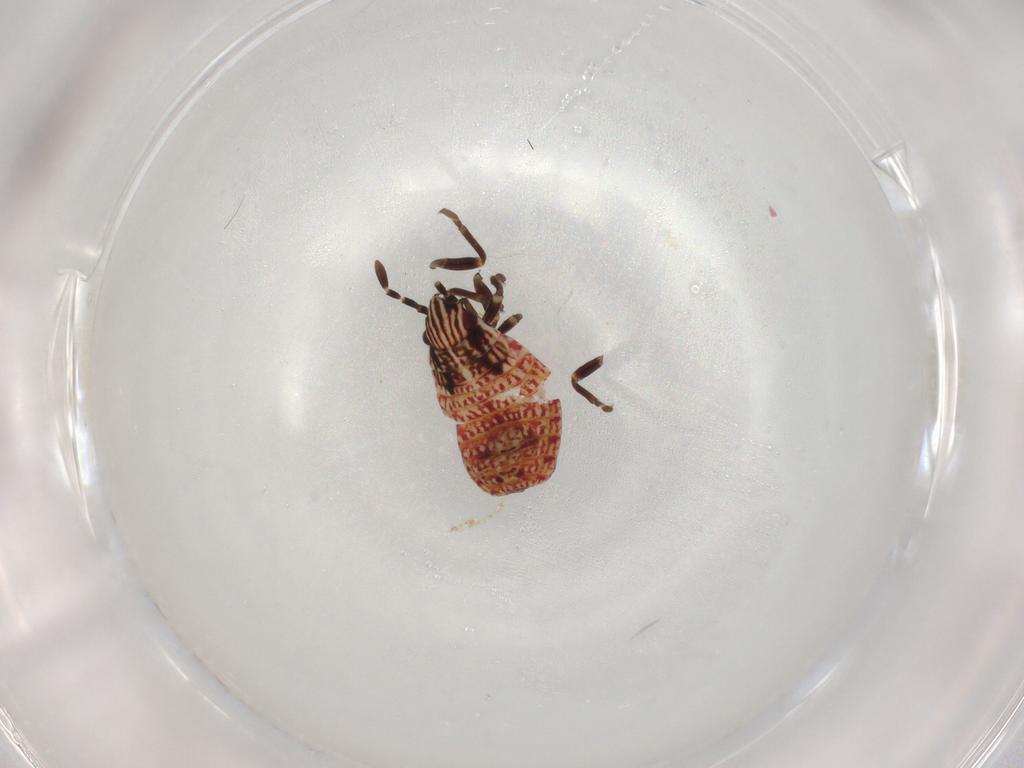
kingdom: Animalia
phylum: Arthropoda
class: Insecta
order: Hemiptera
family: Lygaeidae
